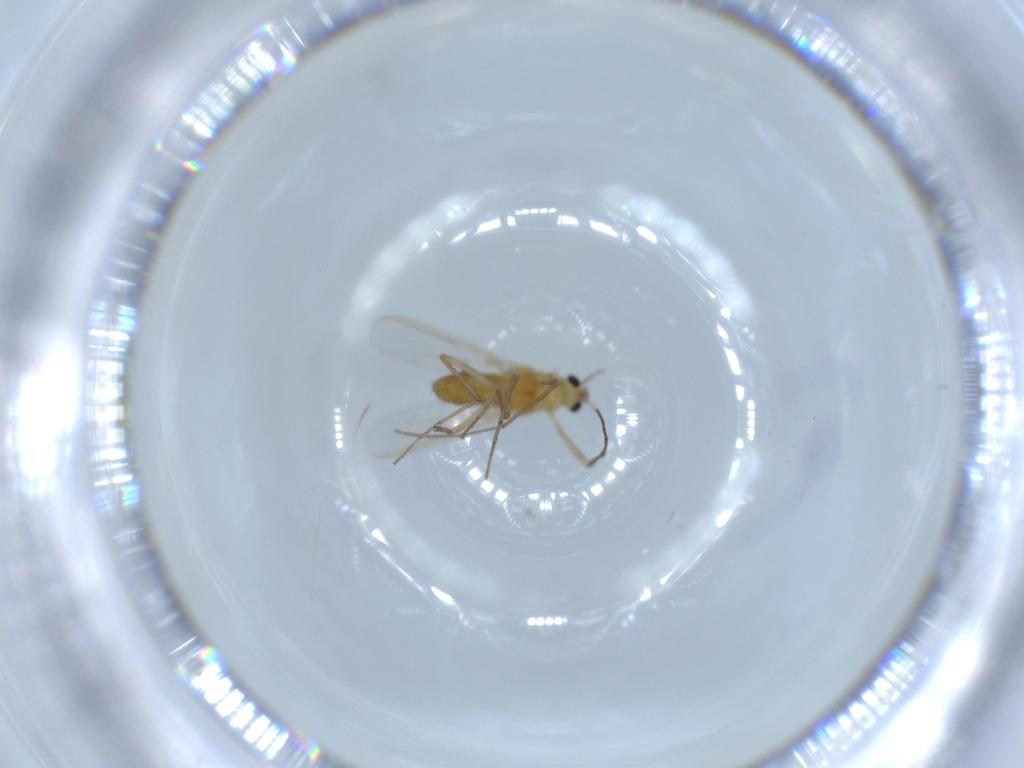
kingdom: Animalia
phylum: Arthropoda
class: Insecta
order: Diptera
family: Chironomidae
